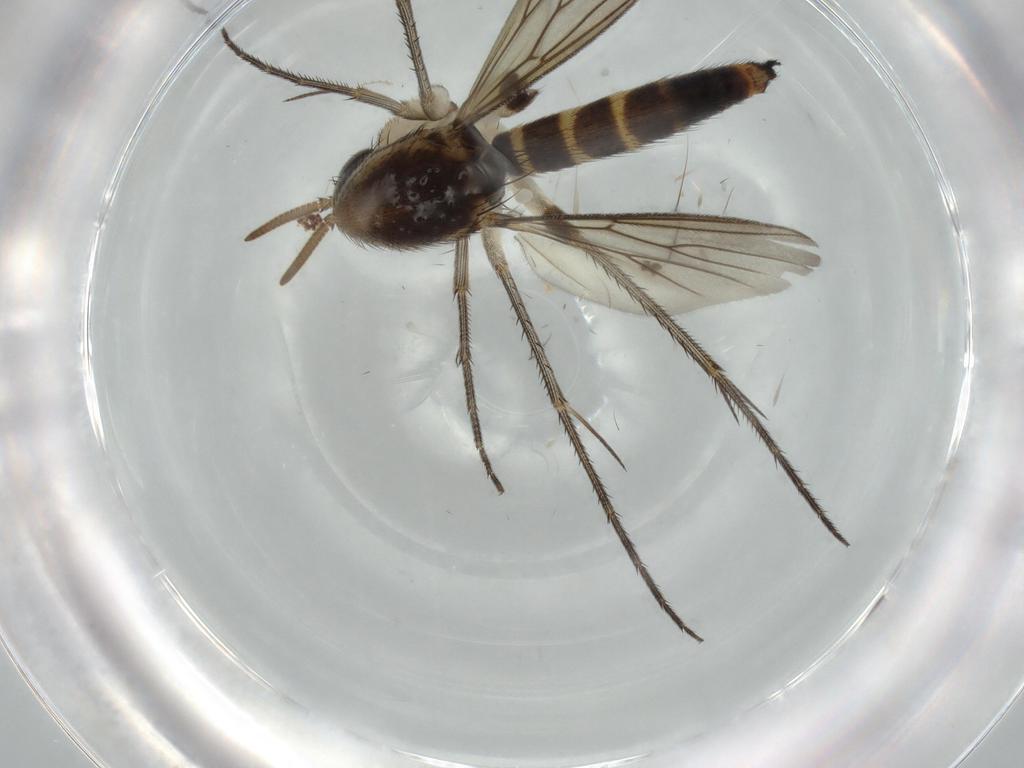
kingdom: Animalia
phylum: Arthropoda
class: Insecta
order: Diptera
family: Mycetophilidae
